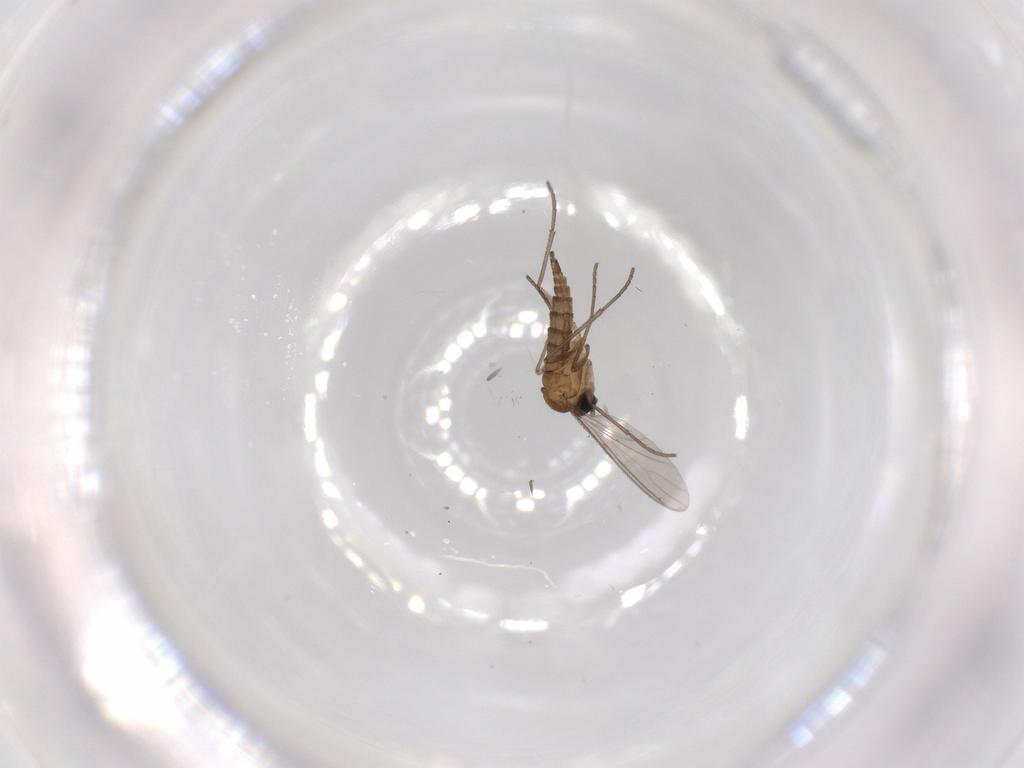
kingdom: Animalia
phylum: Arthropoda
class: Insecta
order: Diptera
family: Sciaridae
